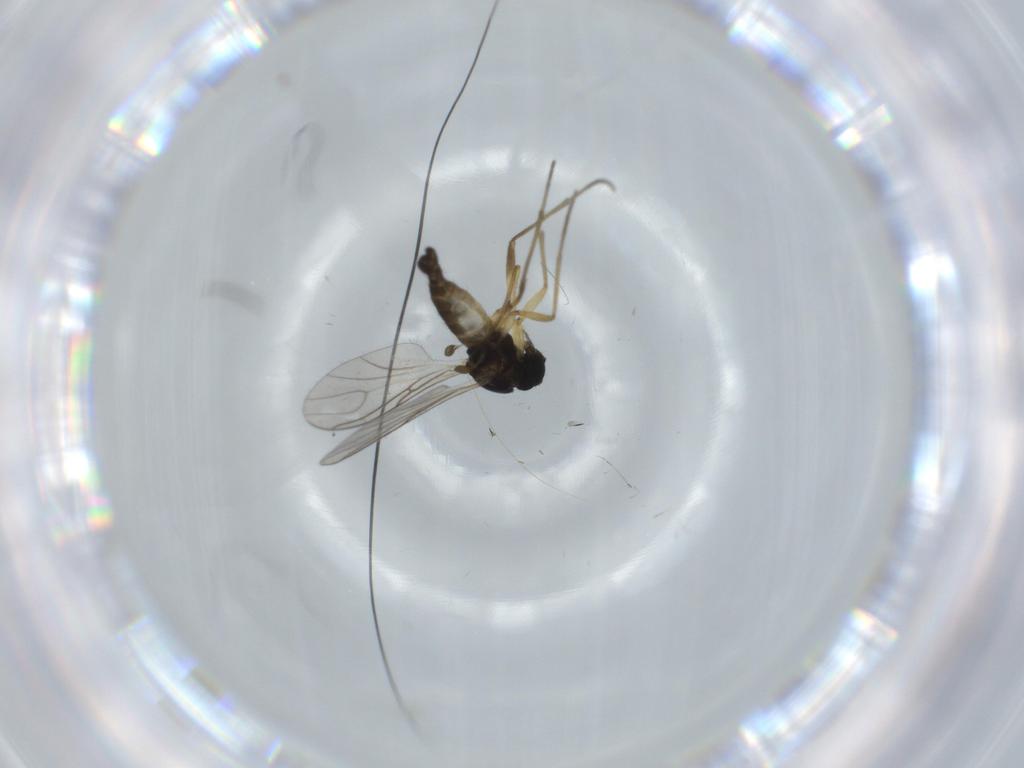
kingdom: Animalia
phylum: Arthropoda
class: Insecta
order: Diptera
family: Sciaridae
